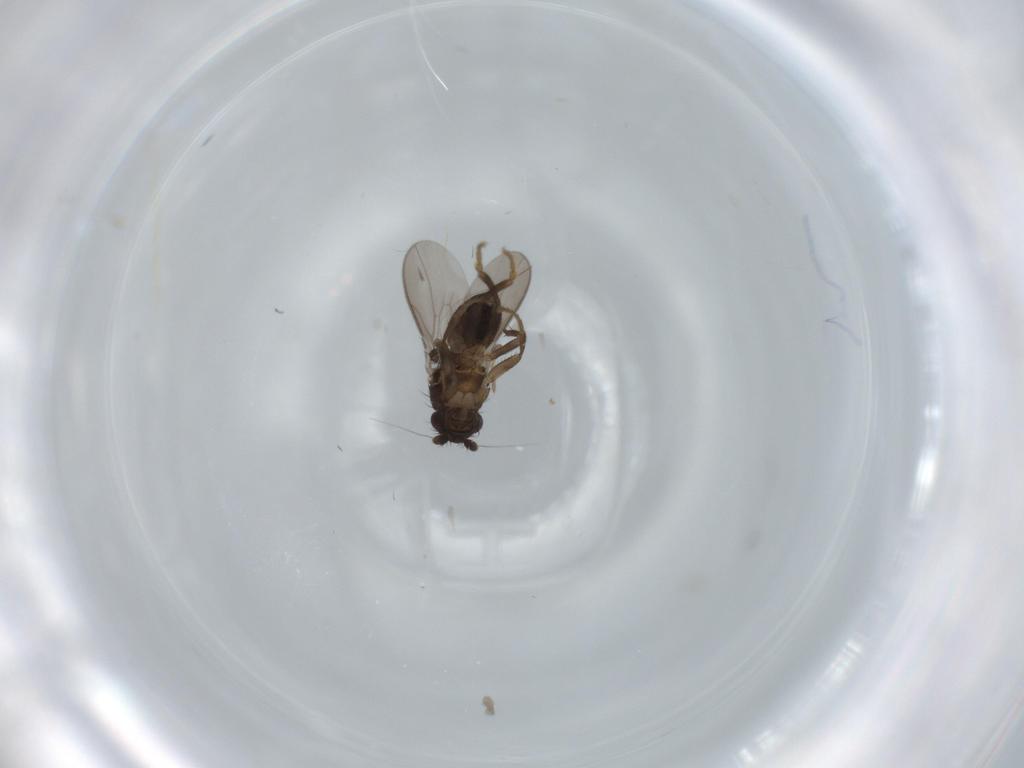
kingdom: Animalia
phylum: Arthropoda
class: Insecta
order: Diptera
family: Sphaeroceridae
